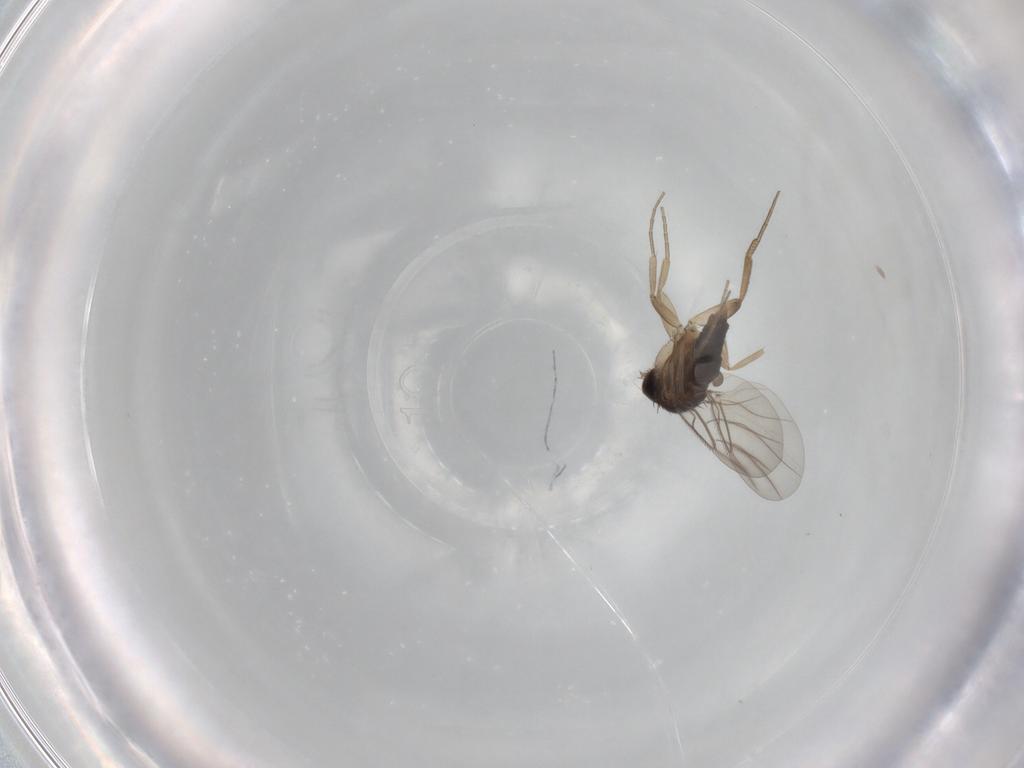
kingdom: Animalia
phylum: Arthropoda
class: Insecta
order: Diptera
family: Phoridae
